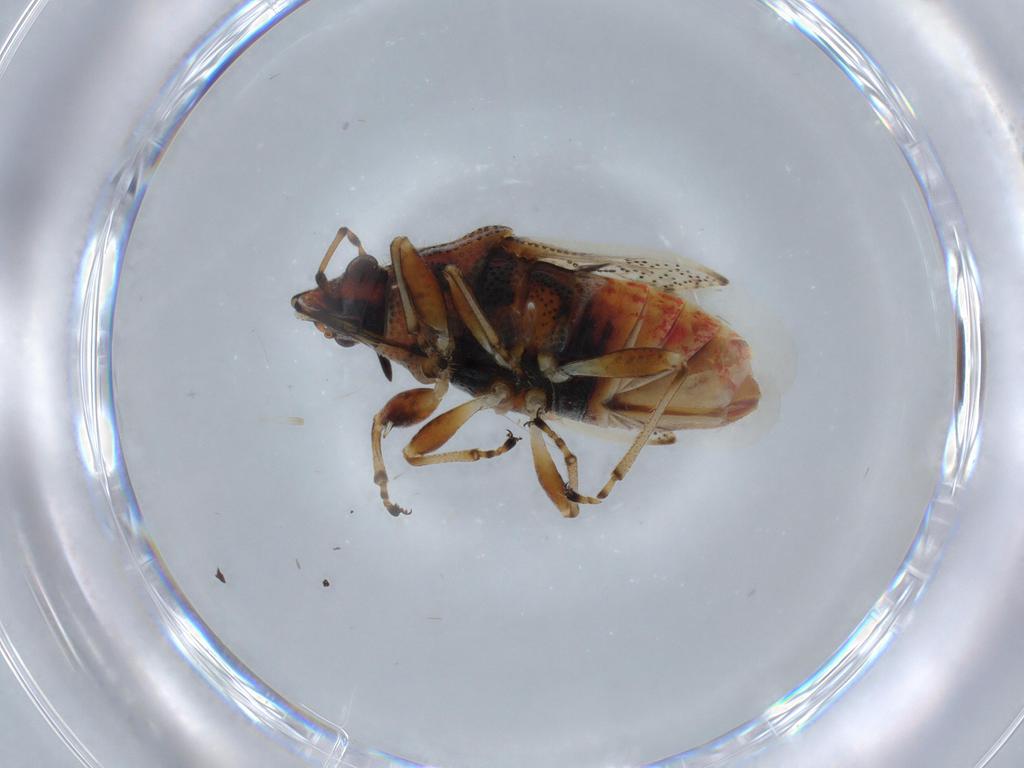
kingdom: Animalia
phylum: Arthropoda
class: Insecta
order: Hemiptera
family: Rhyparochromidae
